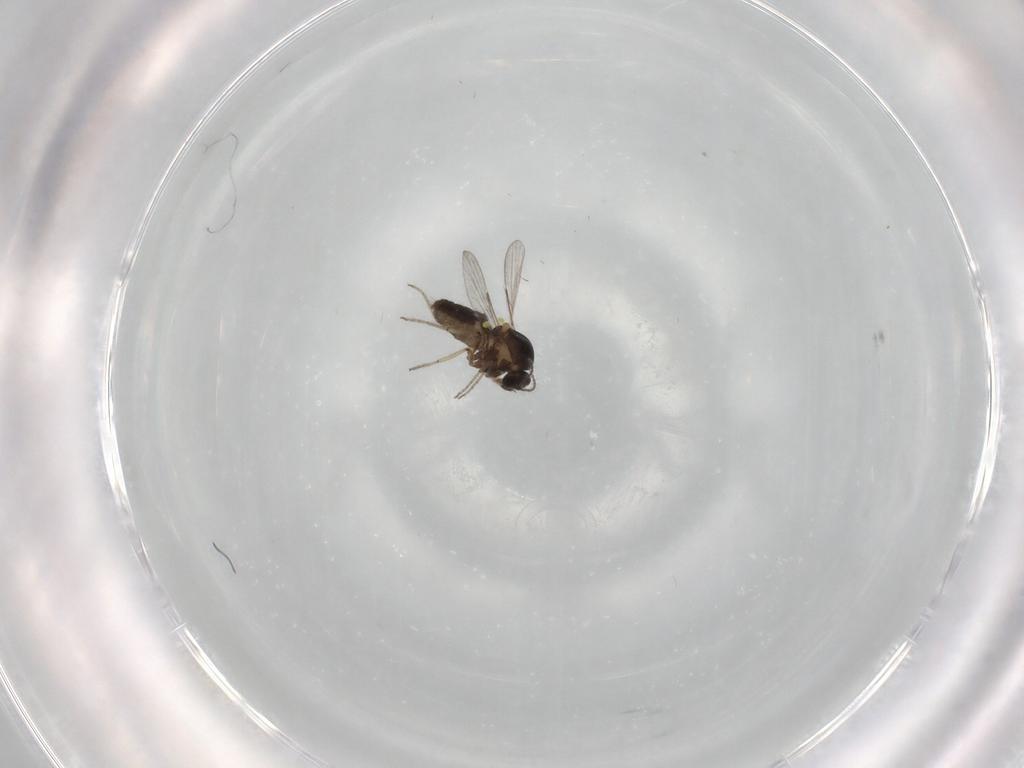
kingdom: Animalia
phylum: Arthropoda
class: Insecta
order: Diptera
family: Ceratopogonidae
